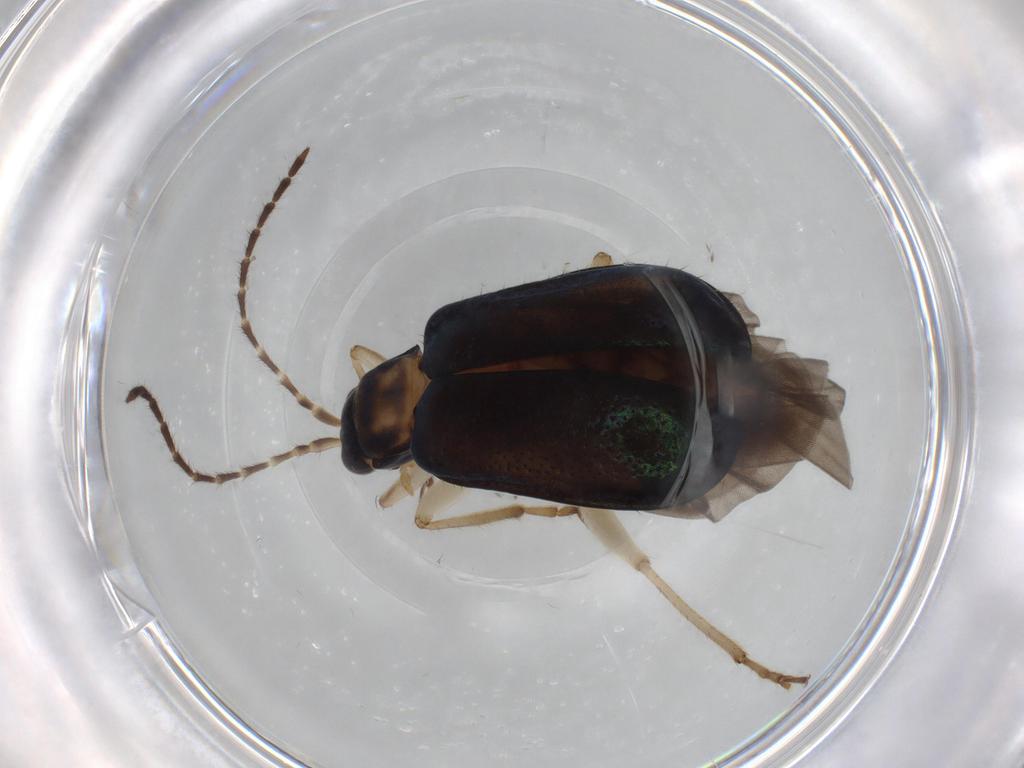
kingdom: Animalia
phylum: Arthropoda
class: Insecta
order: Coleoptera
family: Chrysomelidae
